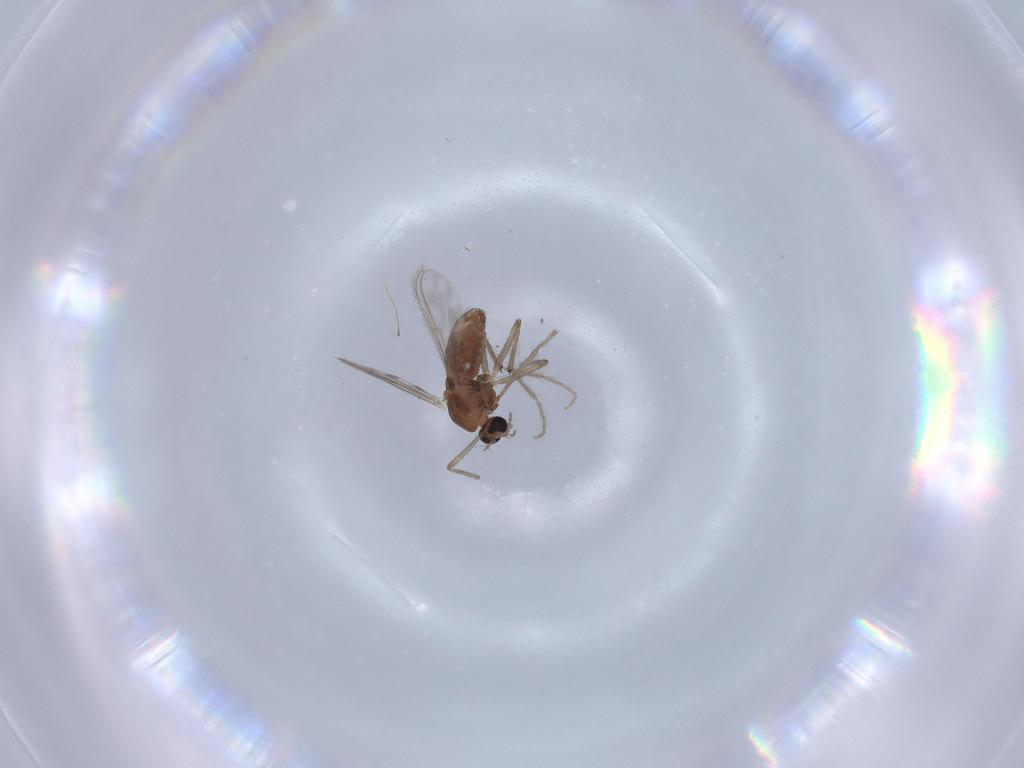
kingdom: Animalia
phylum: Arthropoda
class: Insecta
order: Diptera
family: Chironomidae
